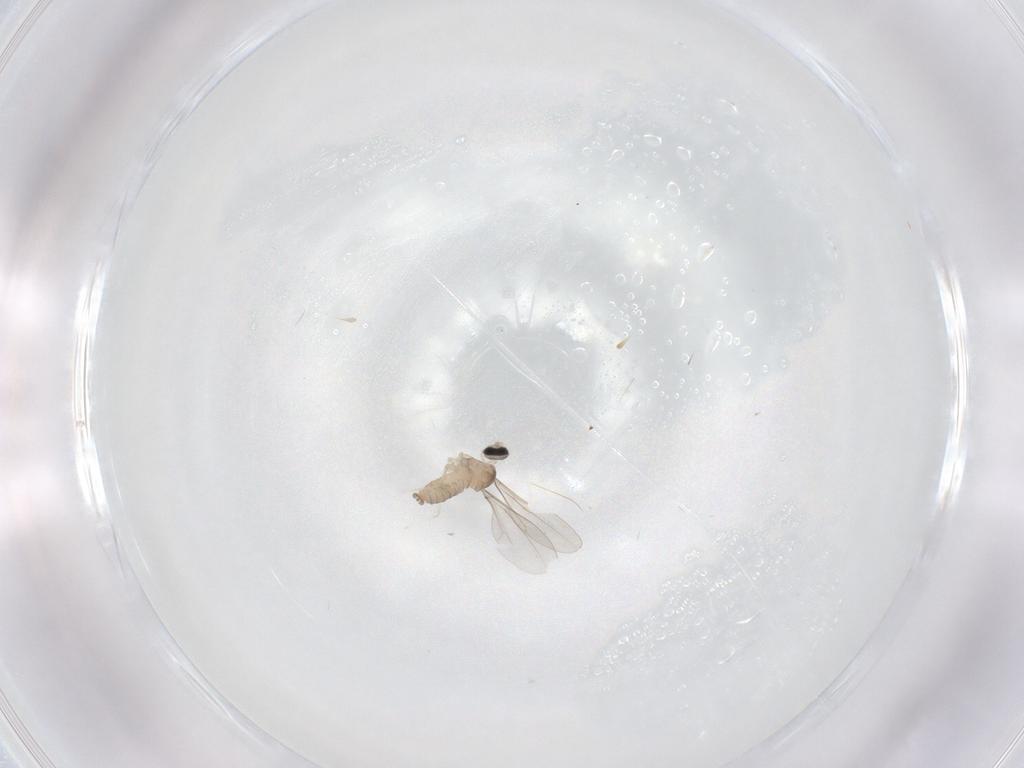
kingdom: Animalia
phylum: Arthropoda
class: Insecta
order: Diptera
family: Cecidomyiidae
